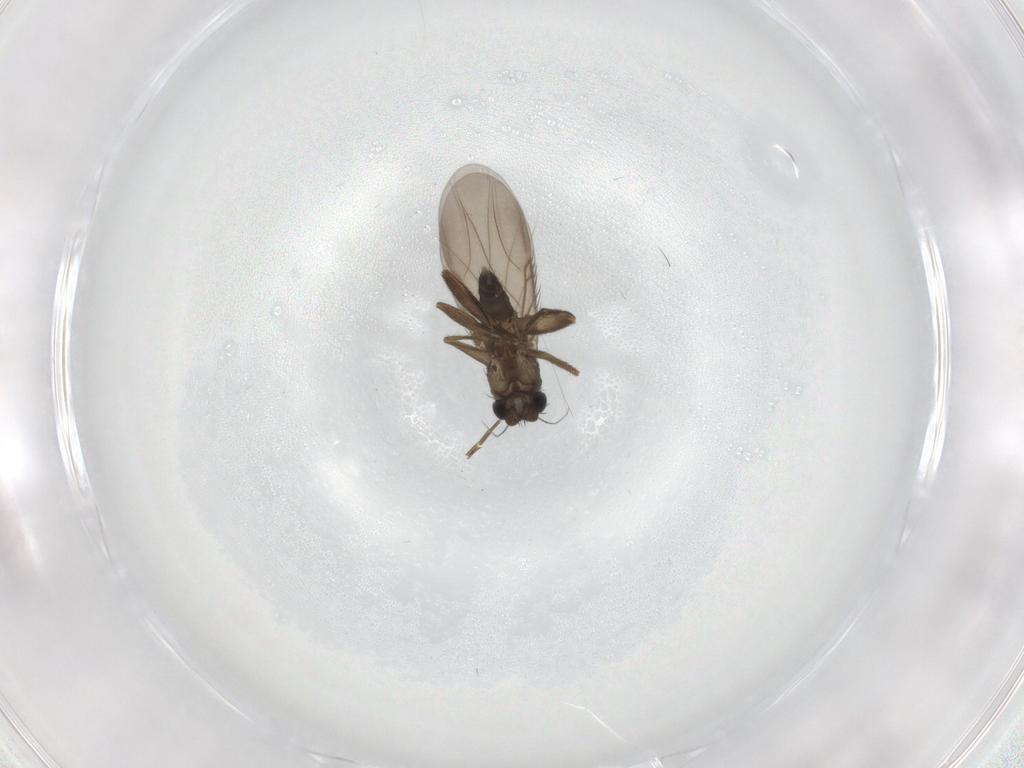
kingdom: Animalia
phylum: Arthropoda
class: Insecta
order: Diptera
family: Phoridae
